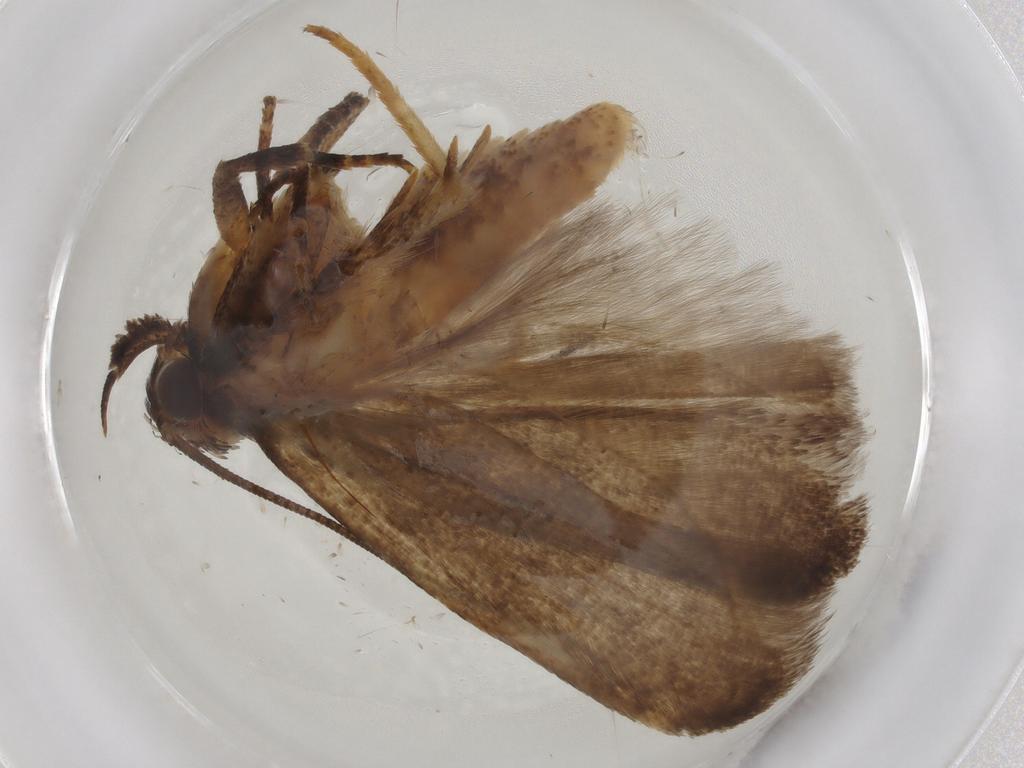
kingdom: Animalia
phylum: Arthropoda
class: Insecta
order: Lepidoptera
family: Gelechiidae
